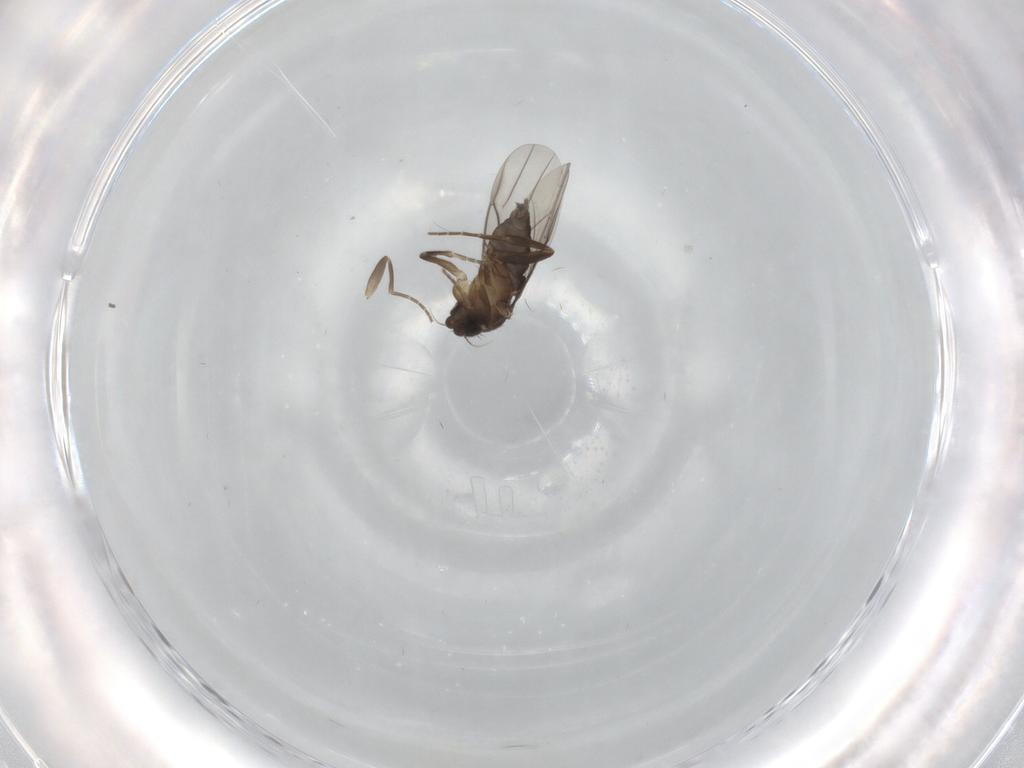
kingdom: Animalia
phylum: Arthropoda
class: Insecta
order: Diptera
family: Phoridae
